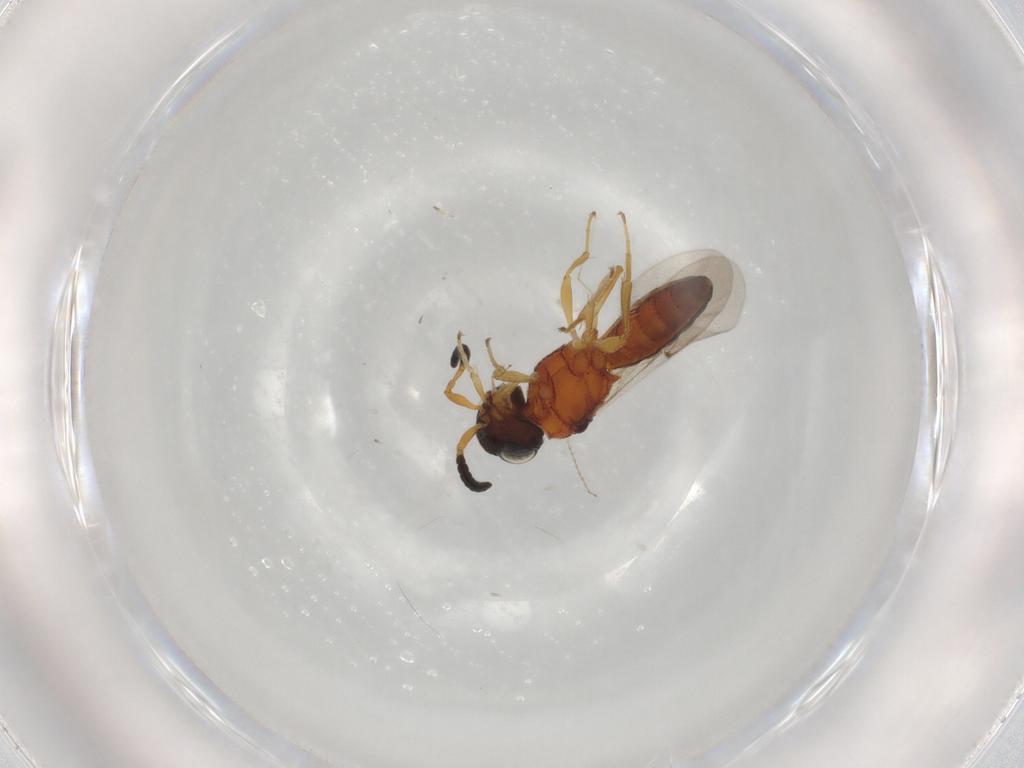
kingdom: Animalia
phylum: Arthropoda
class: Insecta
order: Hymenoptera
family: Scelionidae
